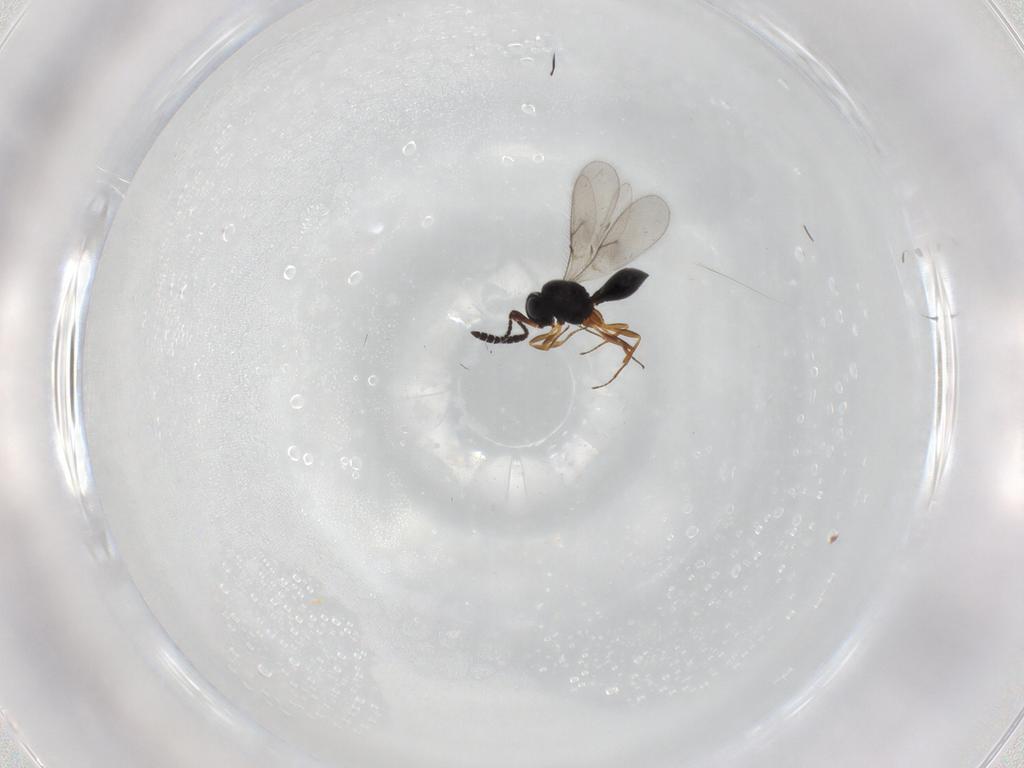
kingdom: Animalia
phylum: Arthropoda
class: Insecta
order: Hymenoptera
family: Scelionidae
